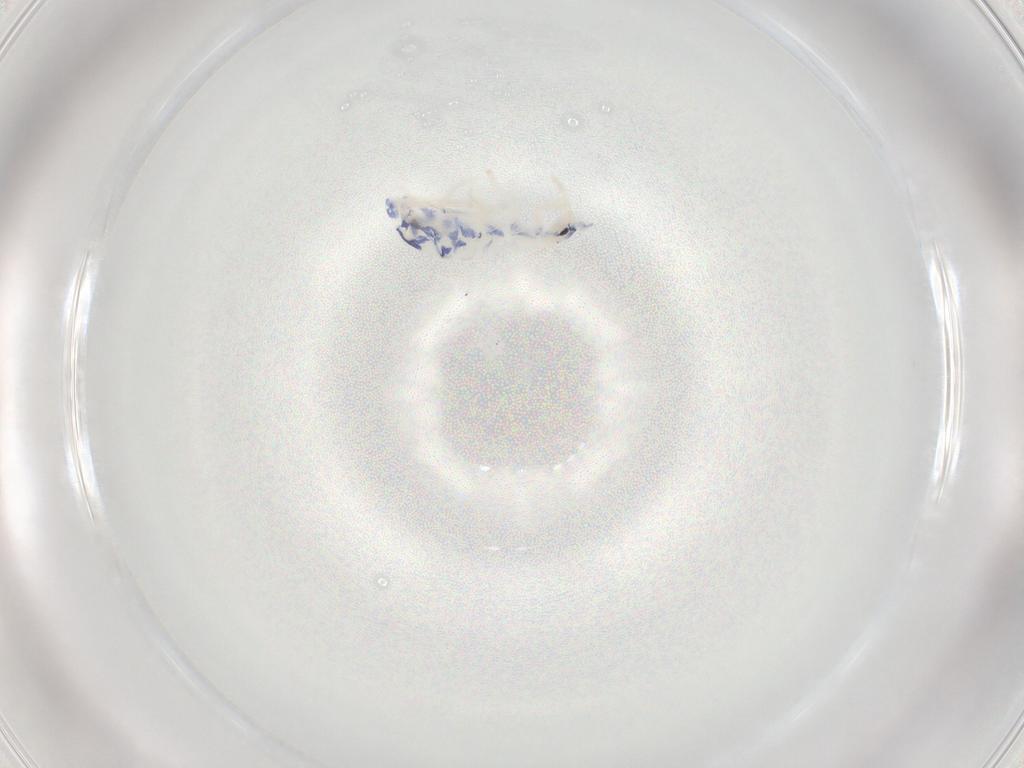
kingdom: Animalia
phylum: Arthropoda
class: Collembola
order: Entomobryomorpha
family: Entomobryidae
